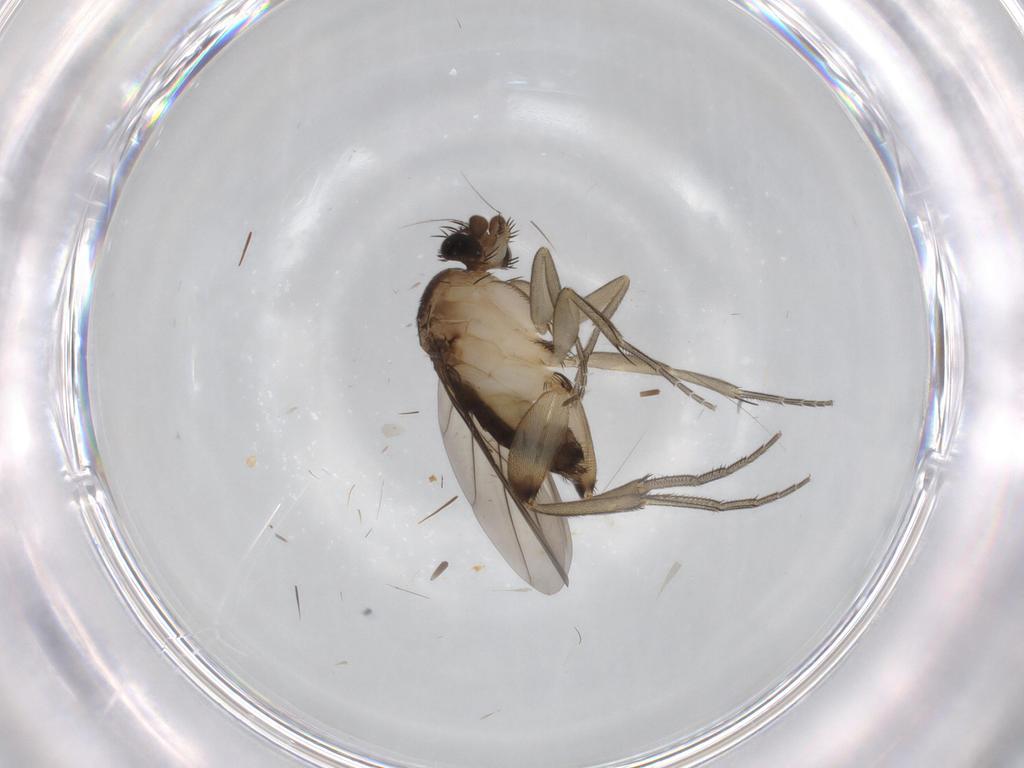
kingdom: Animalia
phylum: Arthropoda
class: Insecta
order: Diptera
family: Phoridae
